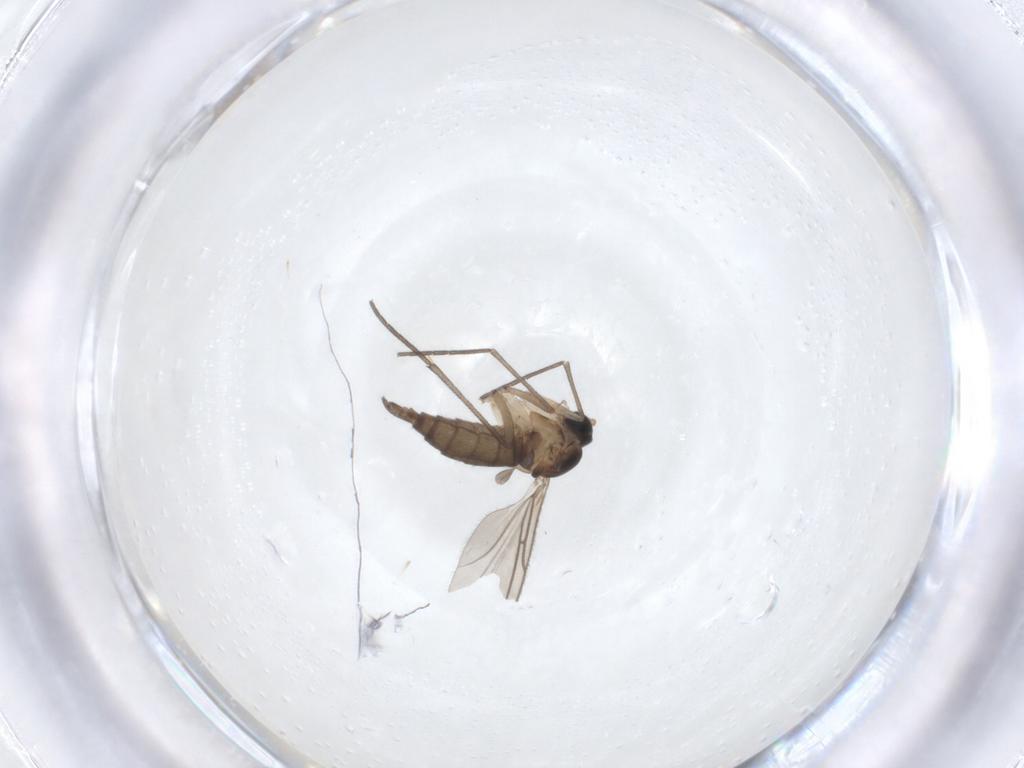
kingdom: Animalia
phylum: Arthropoda
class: Insecta
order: Diptera
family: Sciaridae
